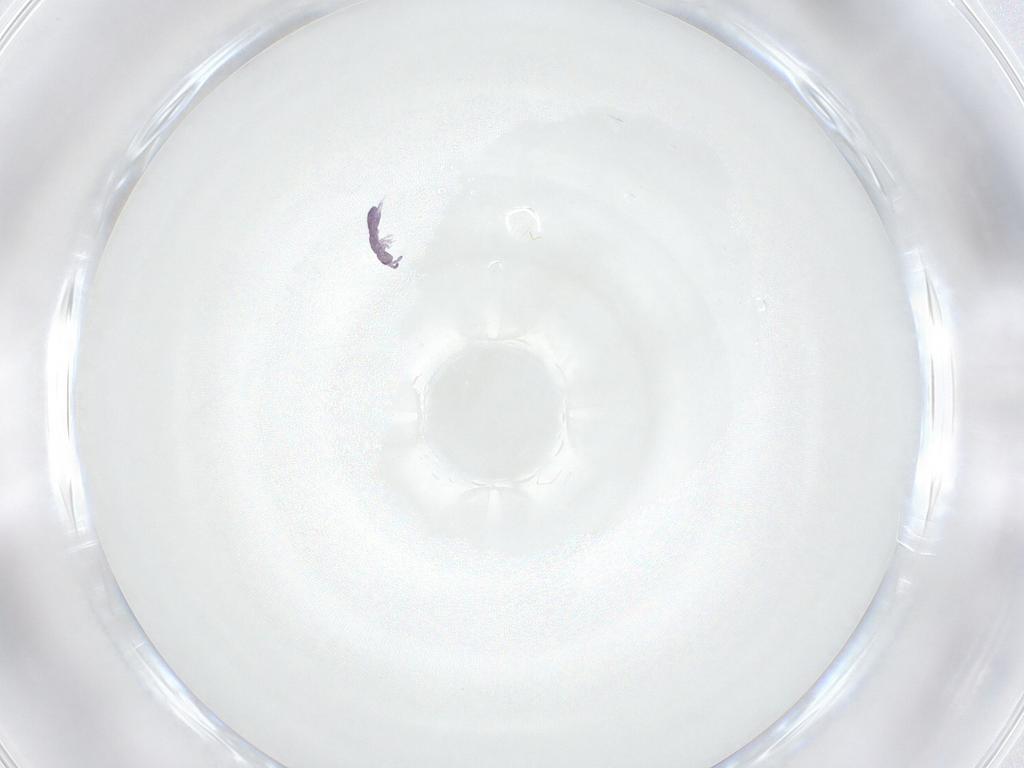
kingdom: Animalia
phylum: Arthropoda
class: Collembola
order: Entomobryomorpha
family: Isotomidae
